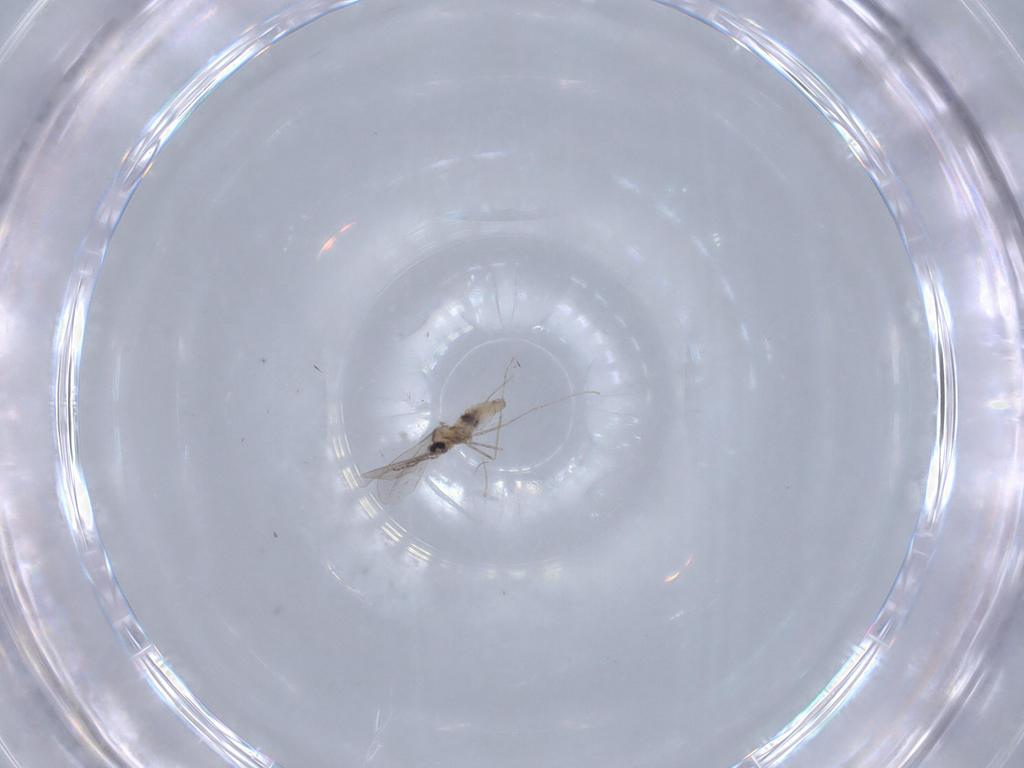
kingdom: Animalia
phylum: Arthropoda
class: Insecta
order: Diptera
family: Cecidomyiidae
